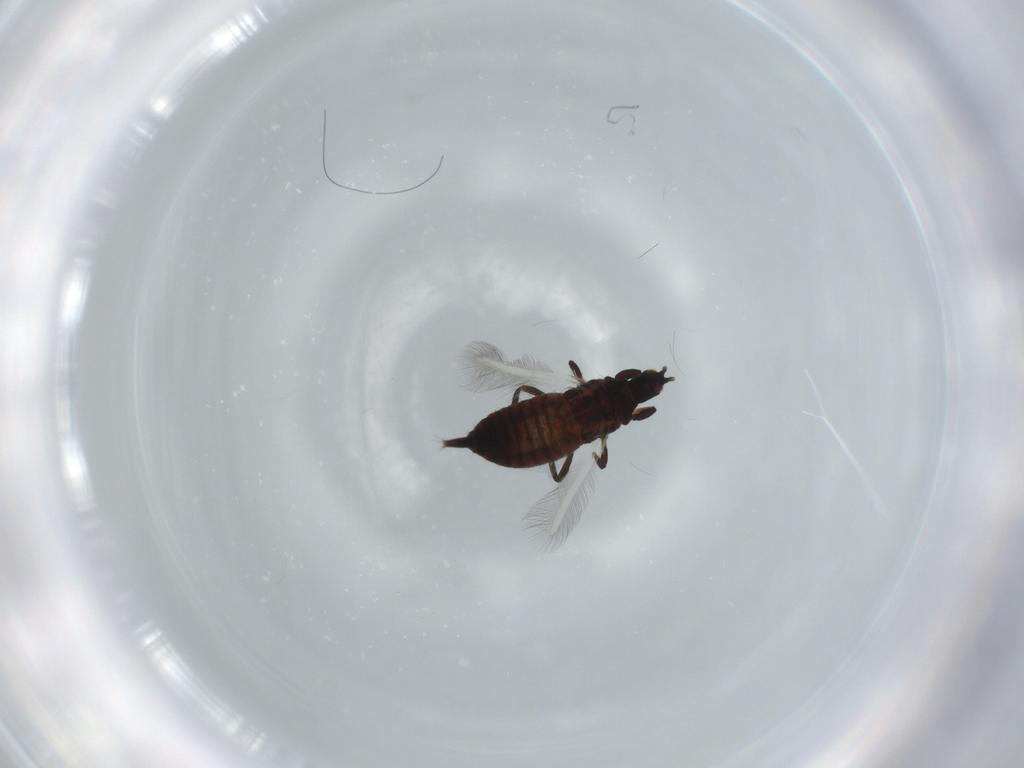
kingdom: Animalia
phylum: Arthropoda
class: Insecta
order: Thysanoptera
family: Phlaeothripidae
